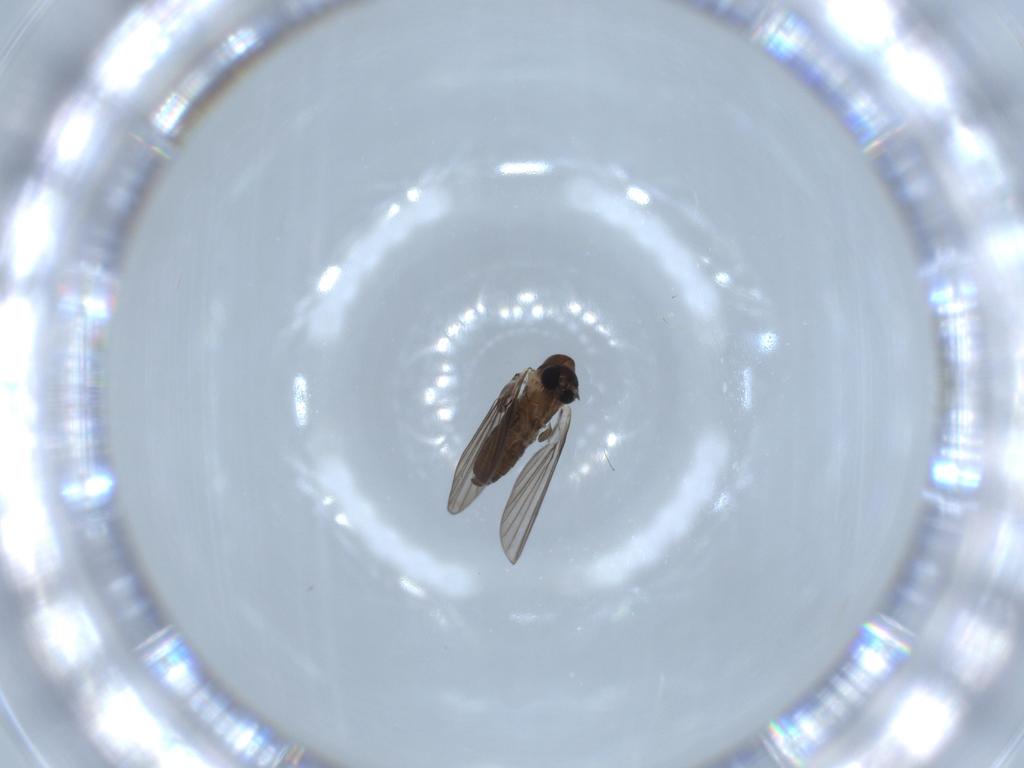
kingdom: Animalia
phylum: Arthropoda
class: Insecta
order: Diptera
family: Psychodidae
